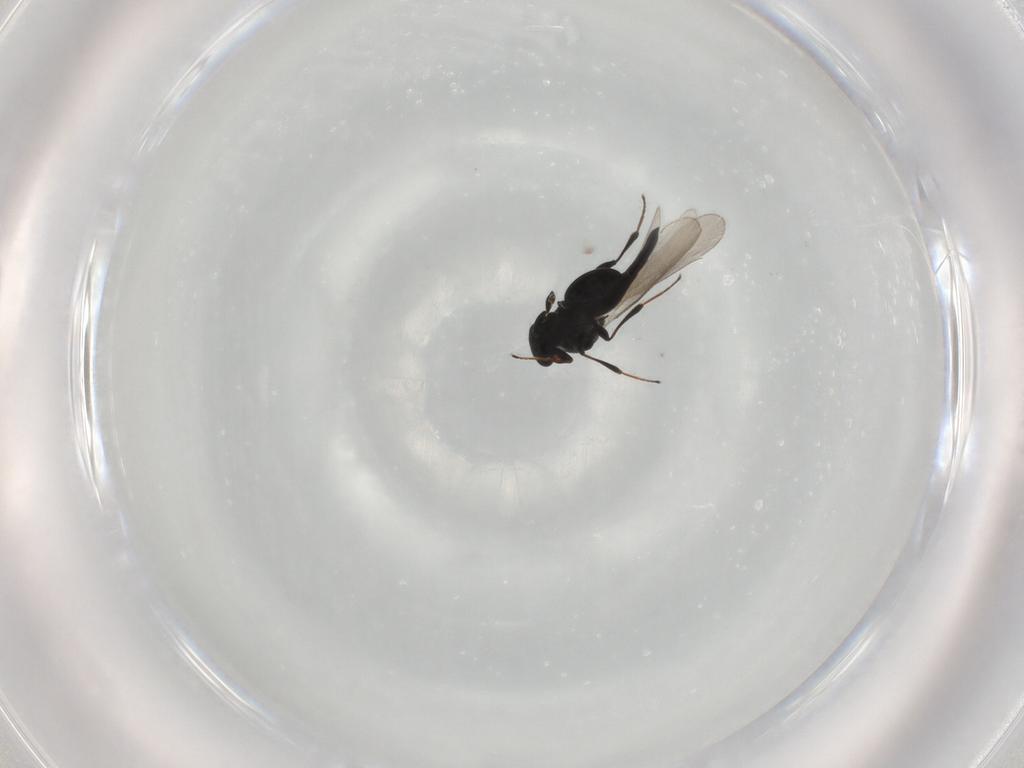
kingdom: Animalia
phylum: Arthropoda
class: Insecta
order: Hymenoptera
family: Platygastridae
